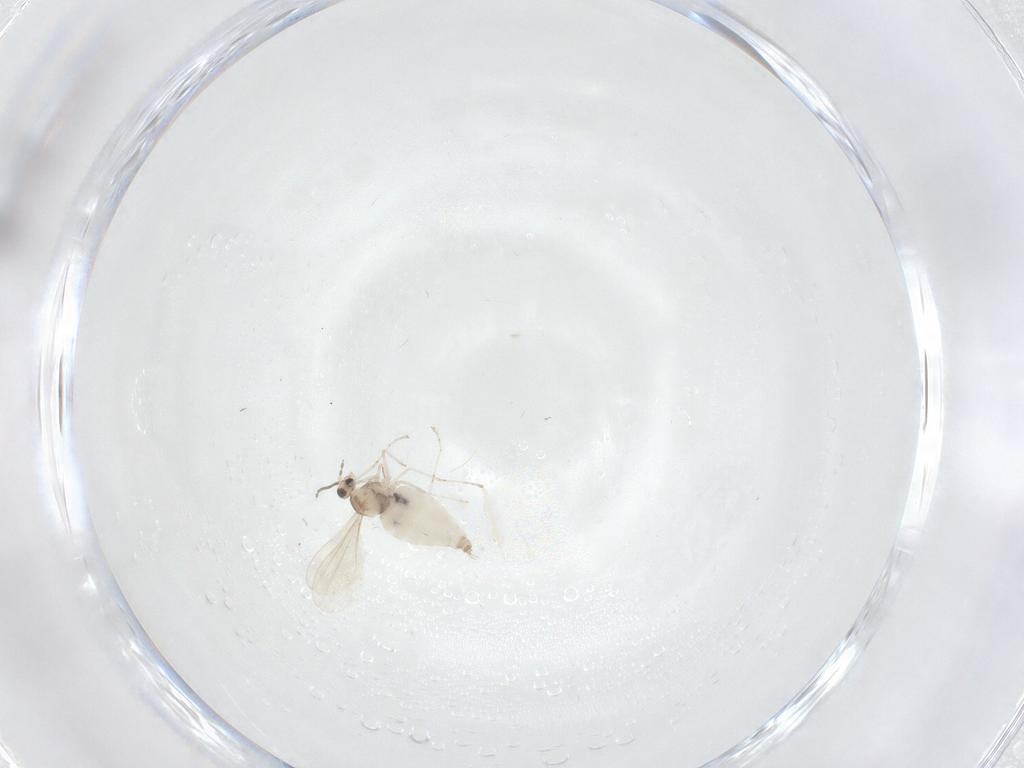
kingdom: Animalia
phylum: Arthropoda
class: Insecta
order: Diptera
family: Cecidomyiidae
